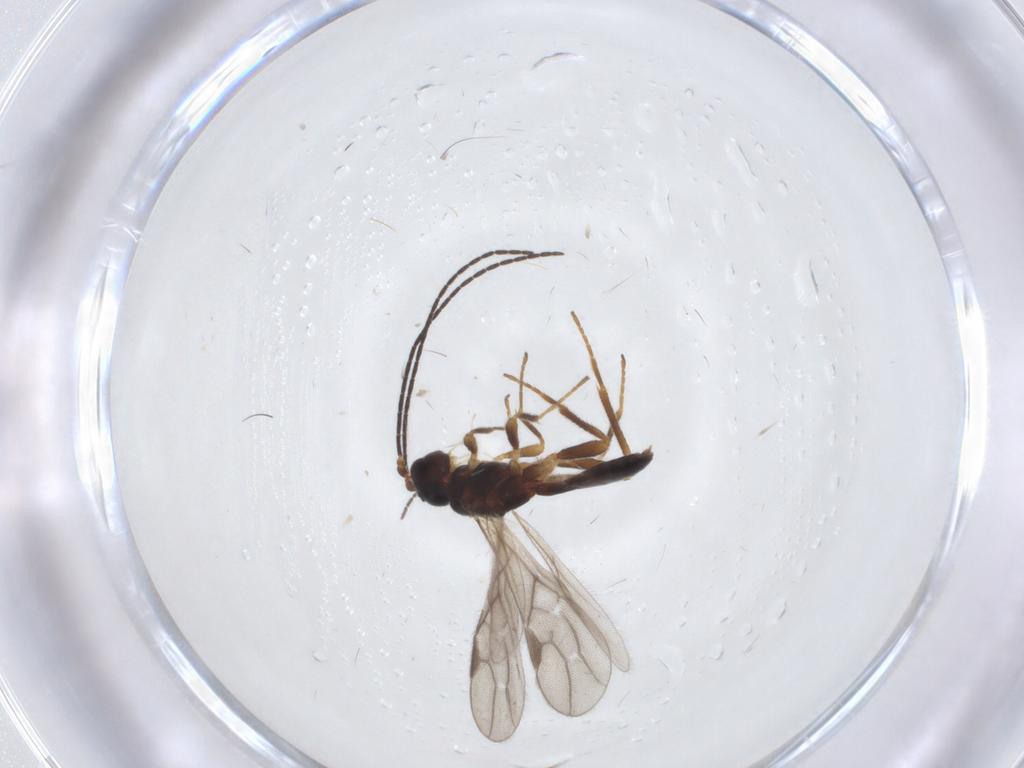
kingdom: Animalia
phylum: Arthropoda
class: Insecta
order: Hymenoptera
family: Braconidae
